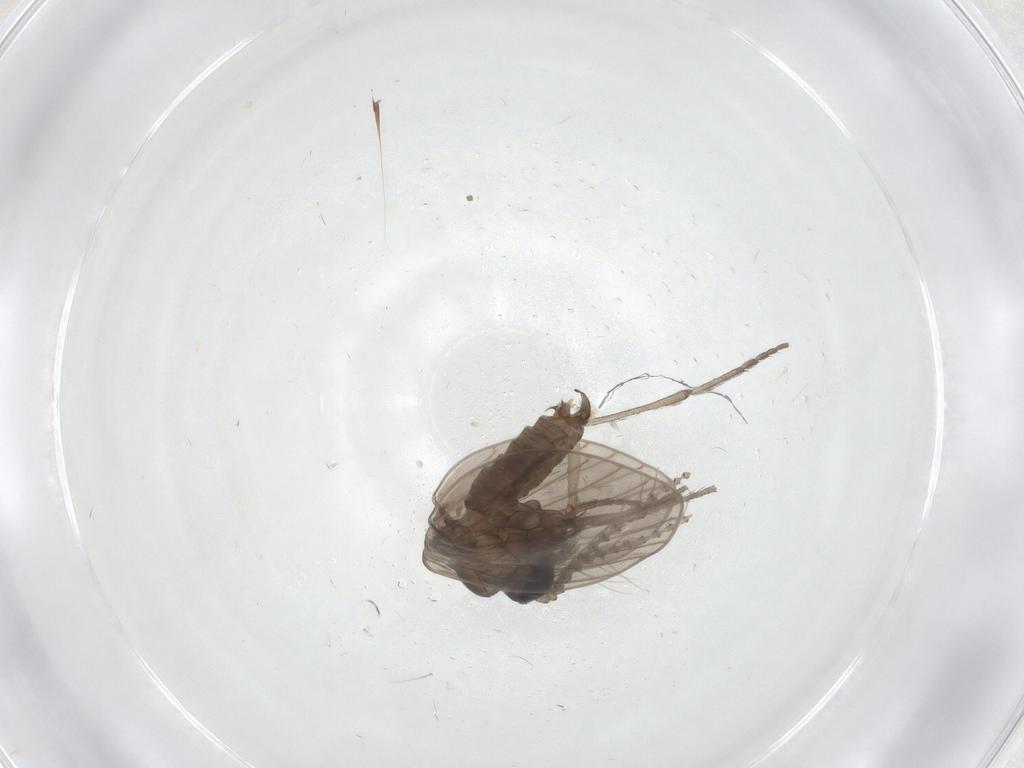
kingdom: Animalia
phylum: Arthropoda
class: Insecta
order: Diptera
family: Psychodidae
